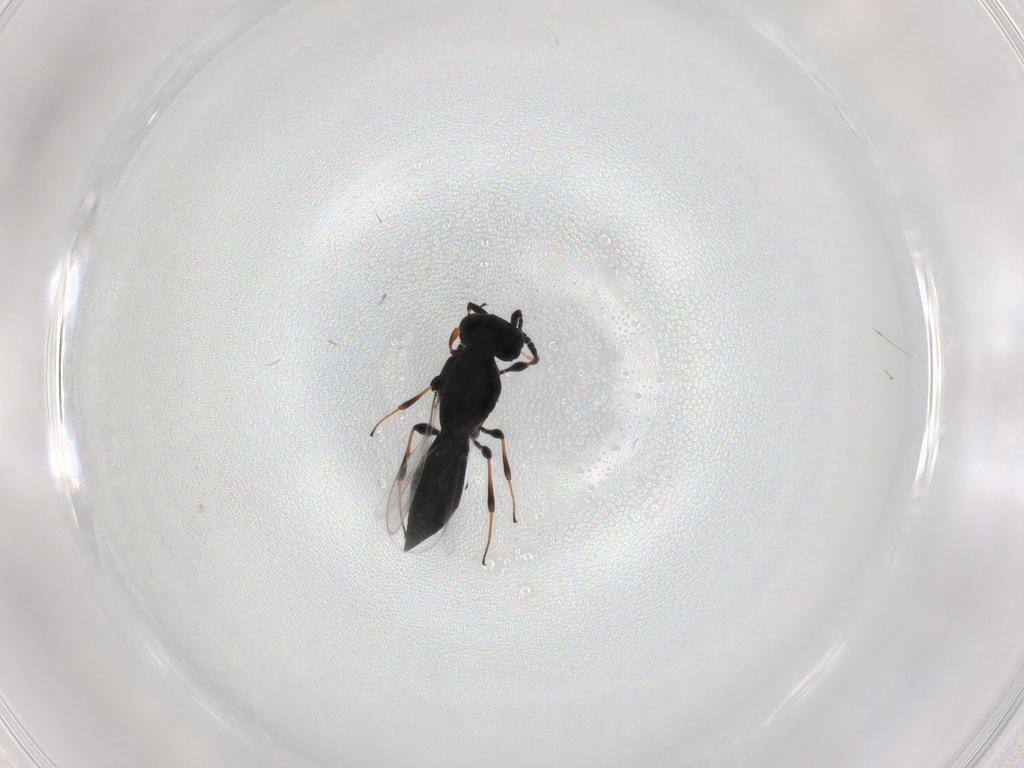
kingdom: Animalia
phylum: Arthropoda
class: Insecta
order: Hymenoptera
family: Platygastridae
